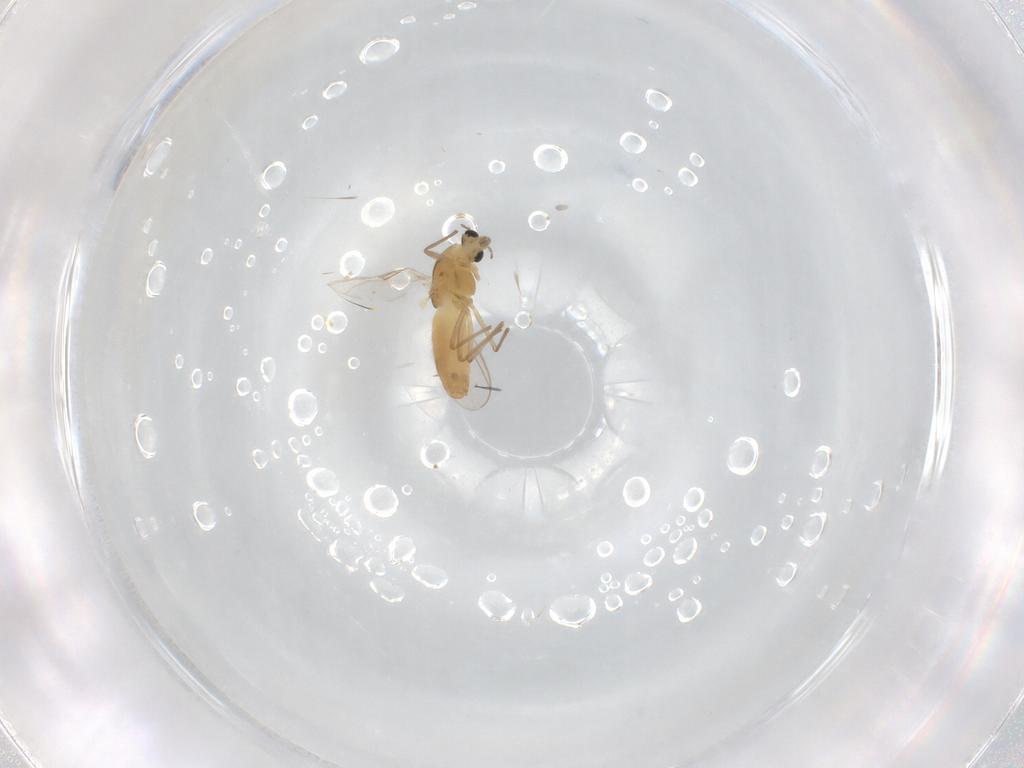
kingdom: Animalia
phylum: Arthropoda
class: Insecta
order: Diptera
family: Chironomidae
